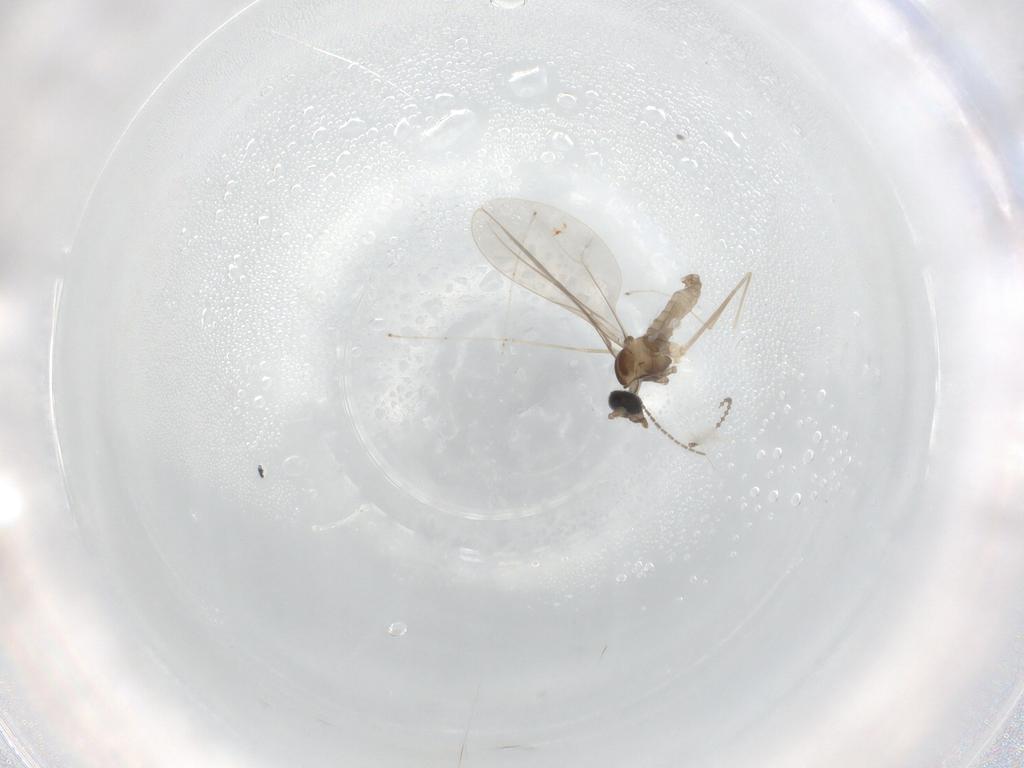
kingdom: Animalia
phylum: Arthropoda
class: Insecta
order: Diptera
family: Cecidomyiidae
